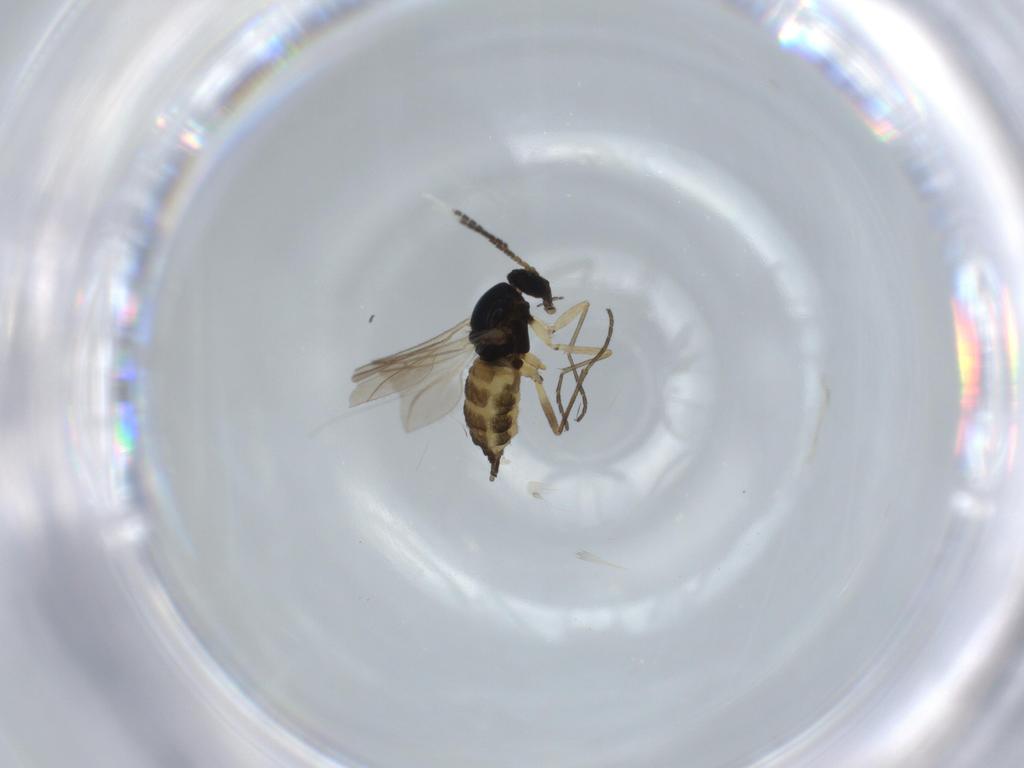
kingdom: Animalia
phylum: Arthropoda
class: Insecta
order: Diptera
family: Sciaridae
